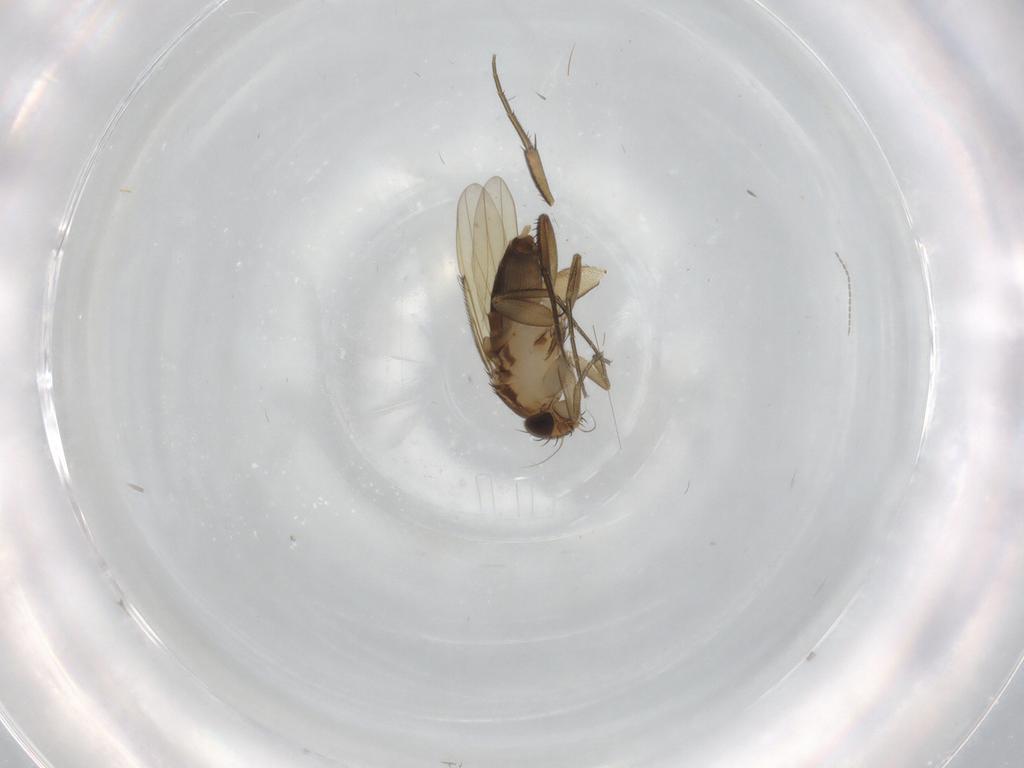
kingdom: Animalia
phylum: Arthropoda
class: Insecta
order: Diptera
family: Phoridae
